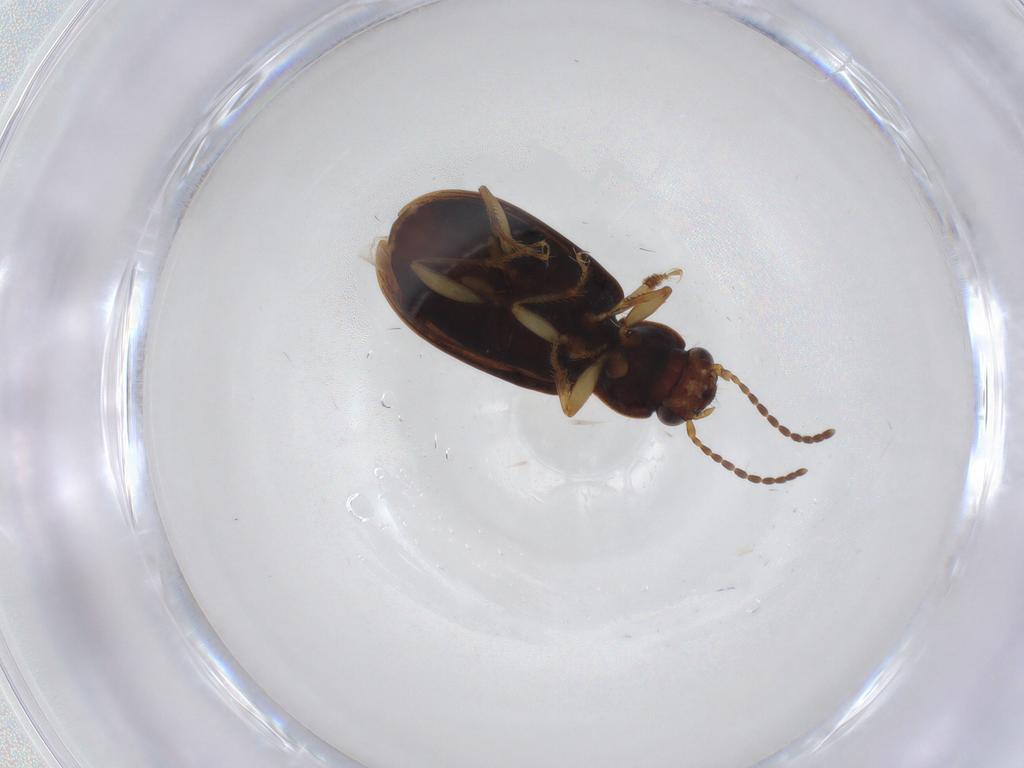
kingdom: Animalia
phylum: Arthropoda
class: Insecta
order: Coleoptera
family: Carabidae
